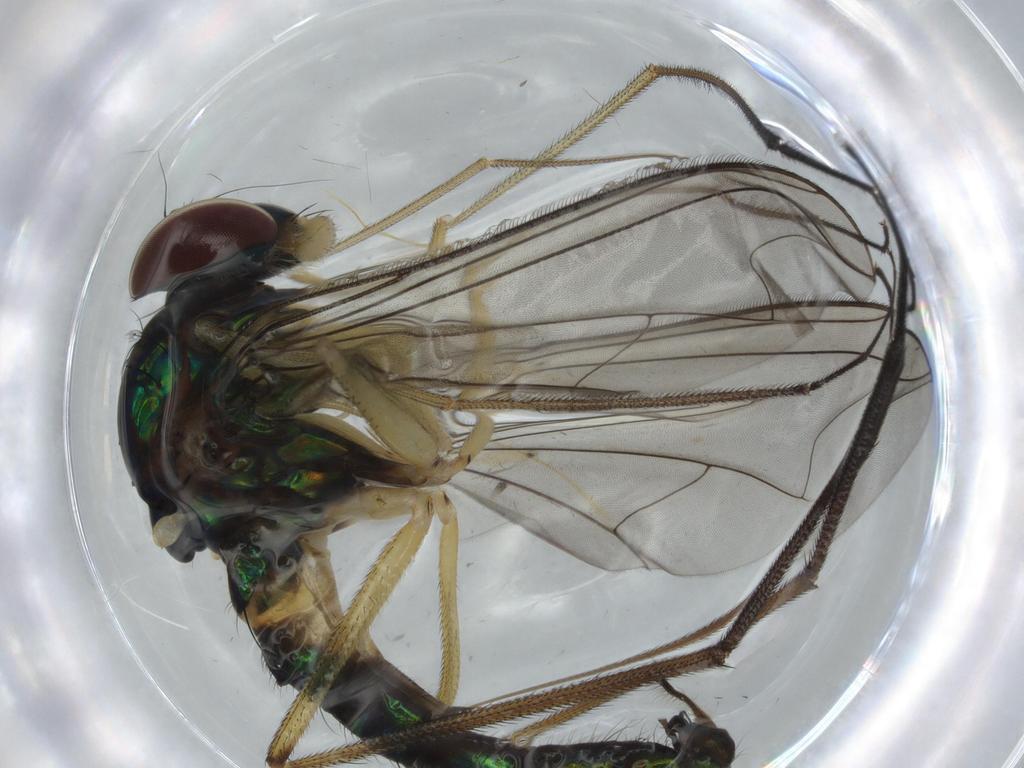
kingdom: Animalia
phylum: Arthropoda
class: Insecta
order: Diptera
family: Dolichopodidae
